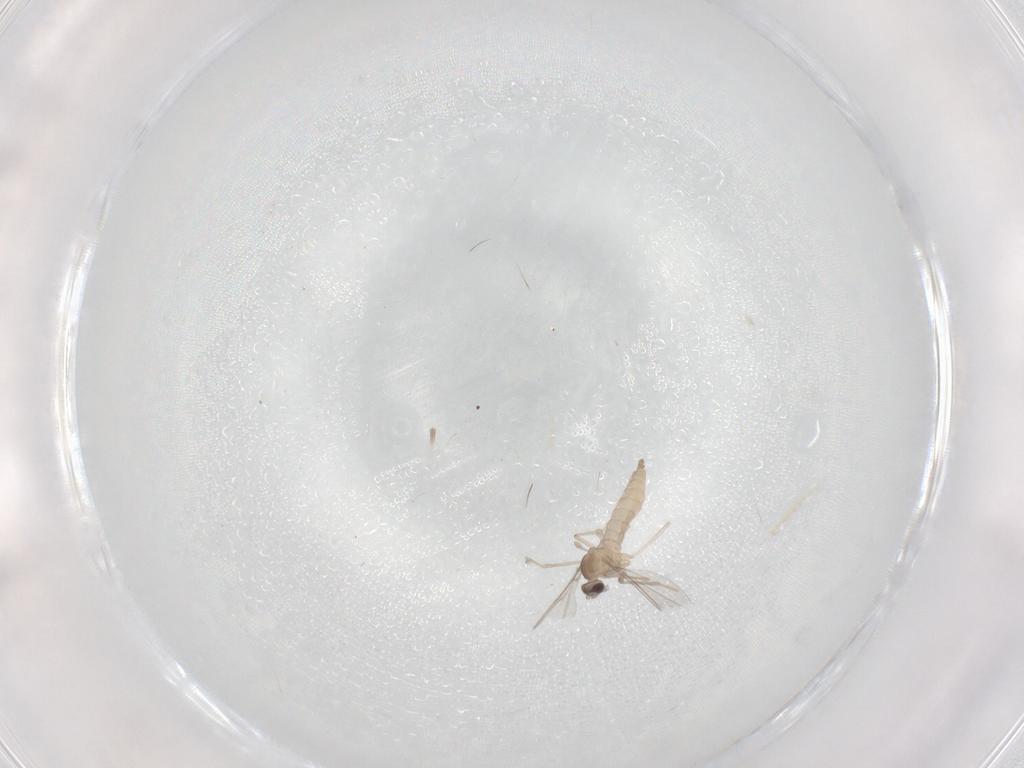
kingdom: Animalia
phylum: Arthropoda
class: Insecta
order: Diptera
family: Cecidomyiidae
